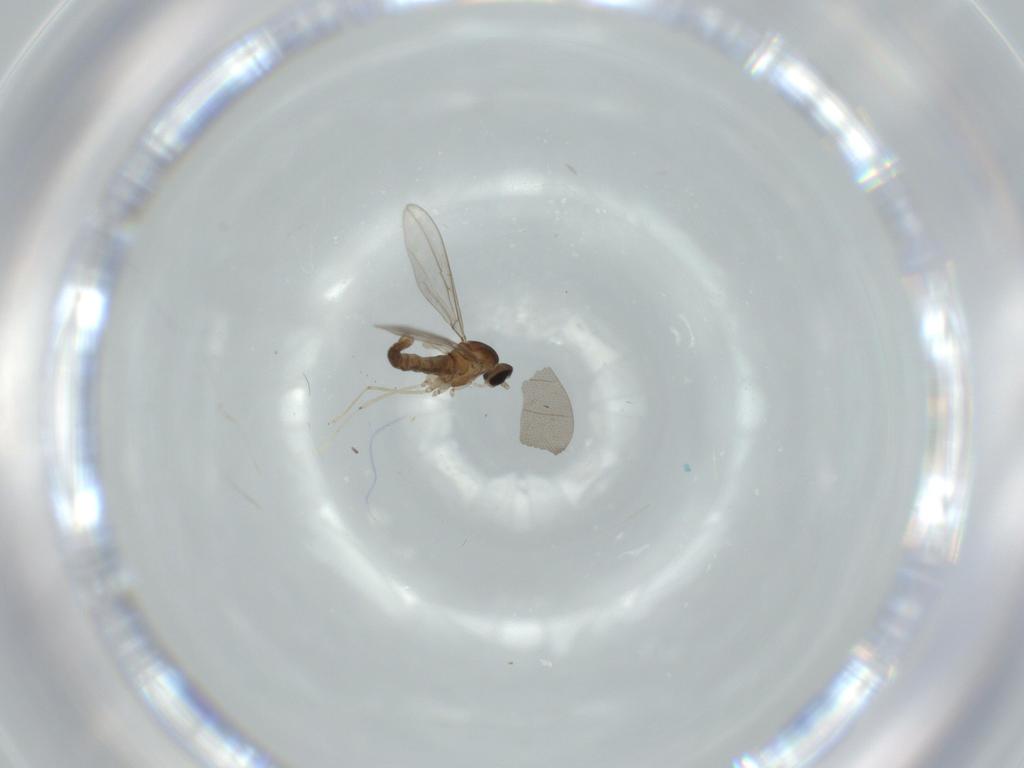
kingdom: Animalia
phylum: Arthropoda
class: Insecta
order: Diptera
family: Cecidomyiidae
